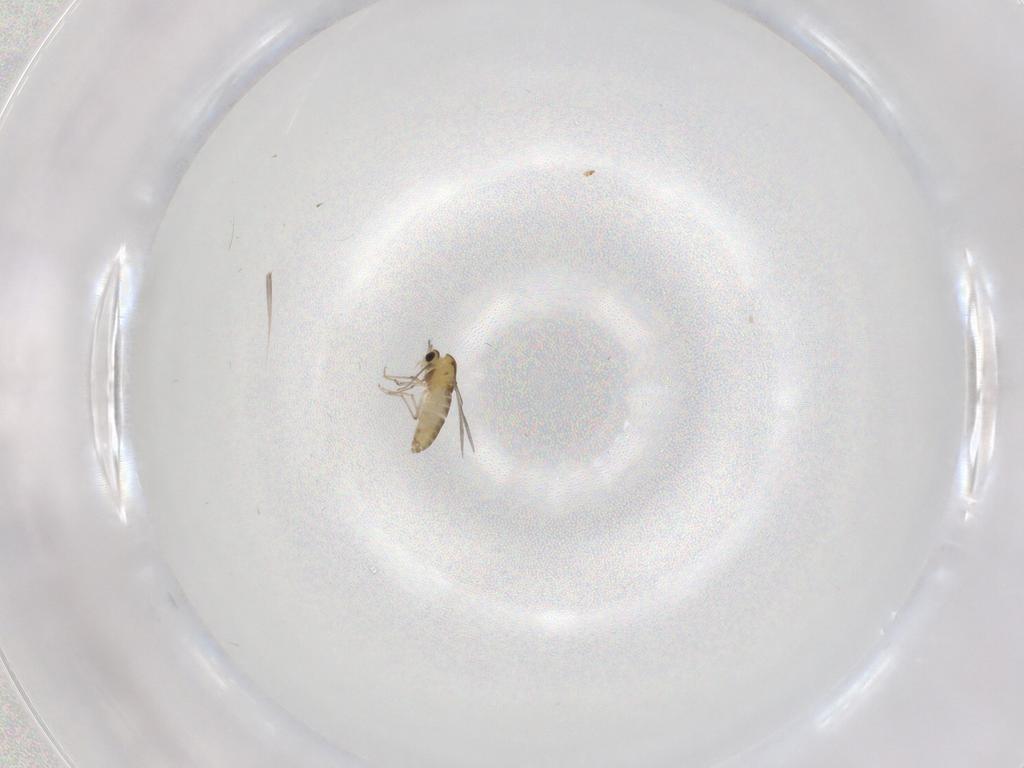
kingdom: Animalia
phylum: Arthropoda
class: Insecta
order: Diptera
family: Chironomidae
